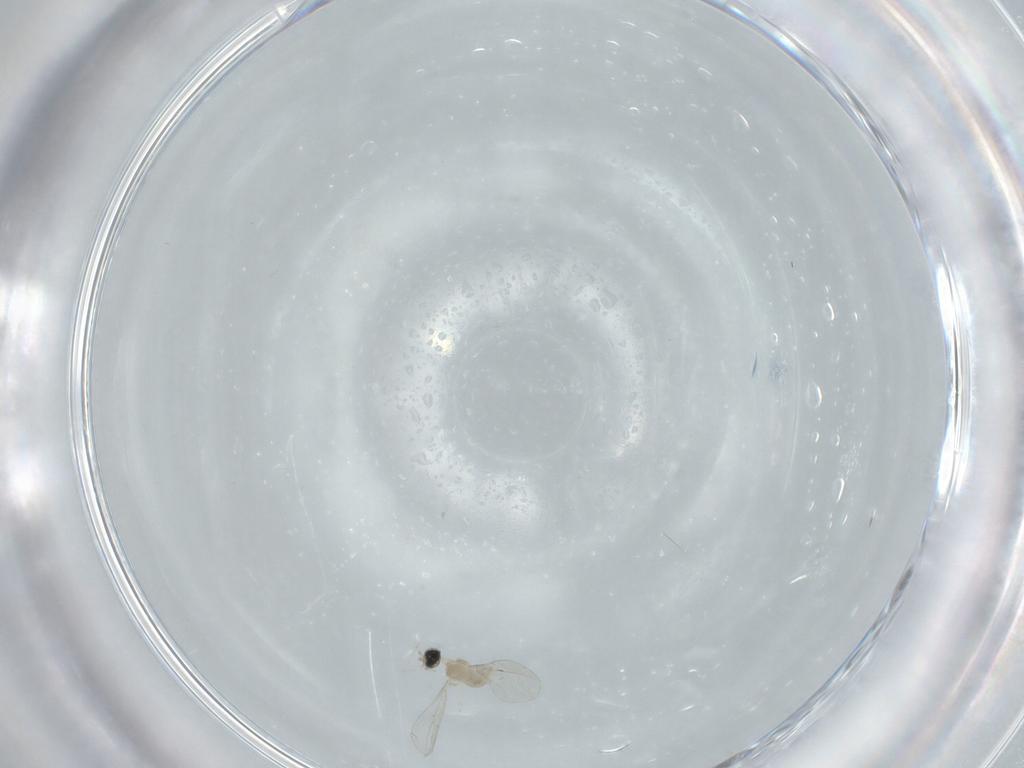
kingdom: Animalia
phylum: Arthropoda
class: Insecta
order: Diptera
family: Cecidomyiidae
